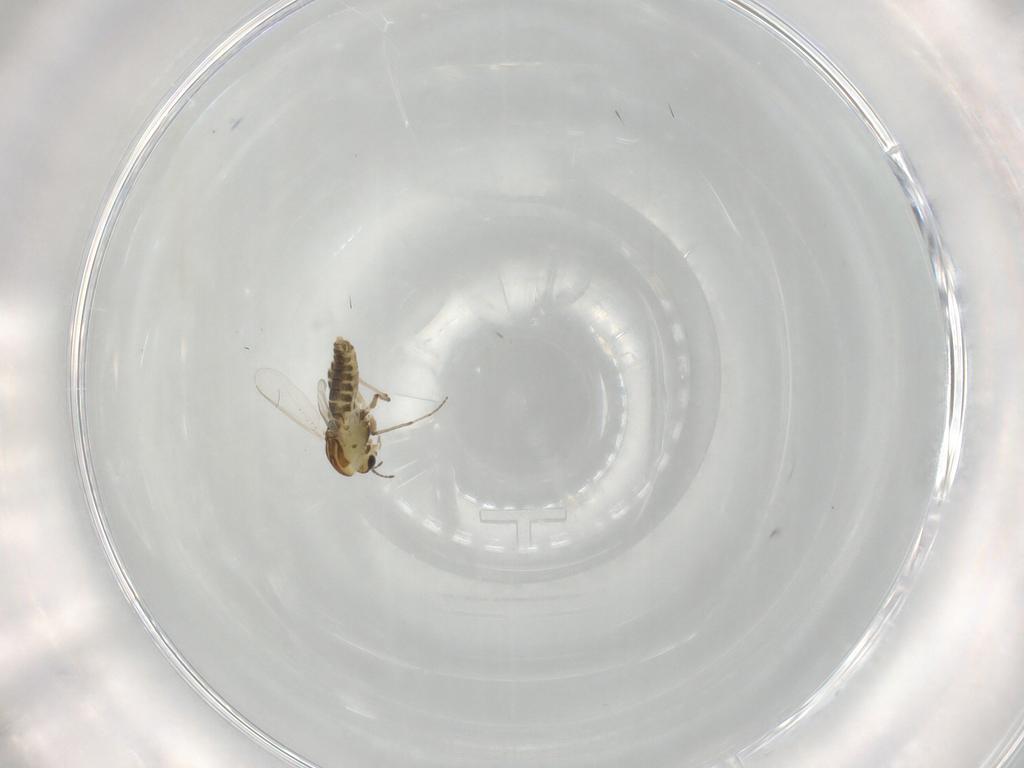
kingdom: Animalia
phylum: Arthropoda
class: Insecta
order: Diptera
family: Chironomidae
